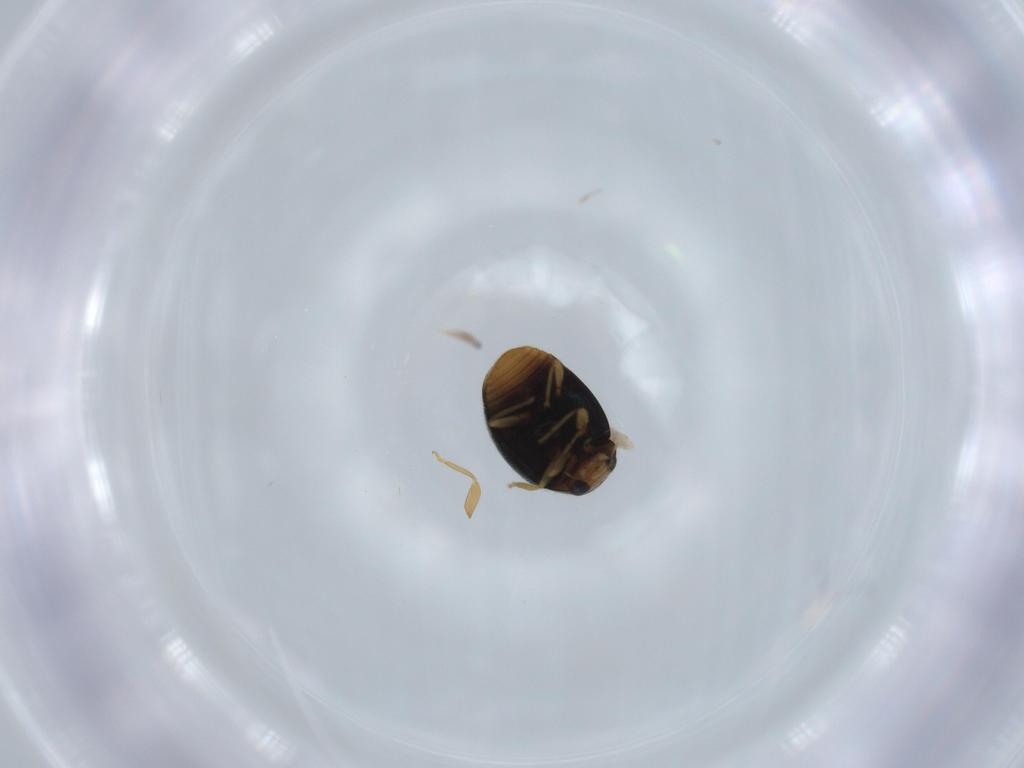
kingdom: Animalia
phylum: Arthropoda
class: Insecta
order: Coleoptera
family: Coccinellidae
